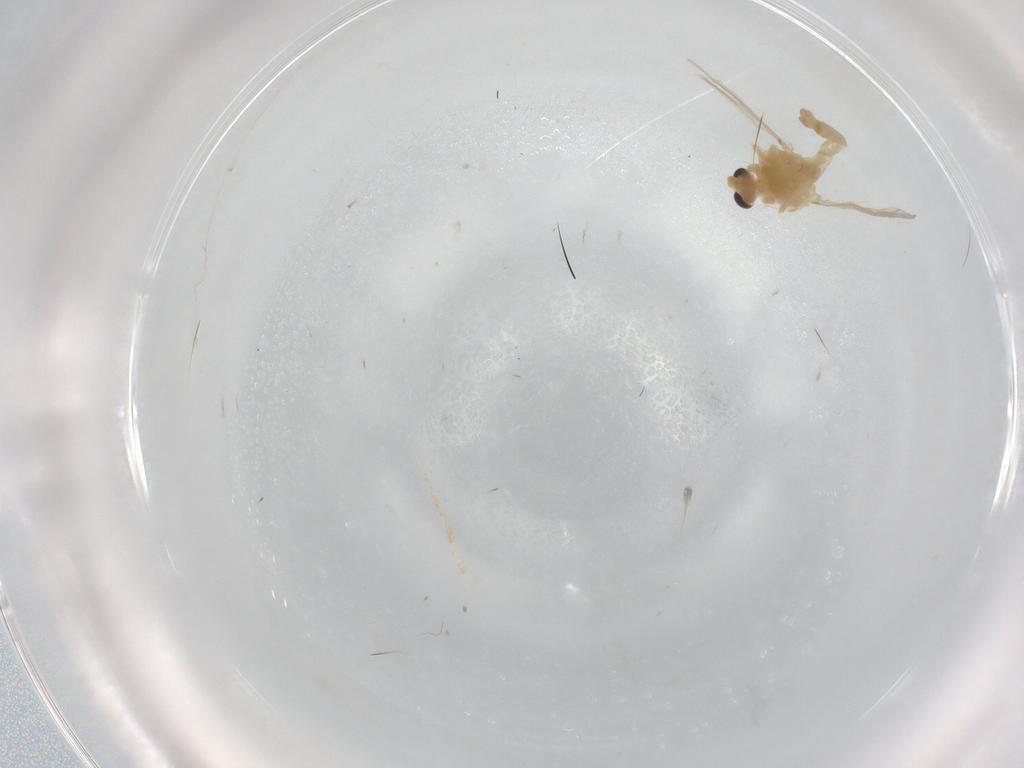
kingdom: Animalia
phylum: Arthropoda
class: Insecta
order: Diptera
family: Chironomidae
